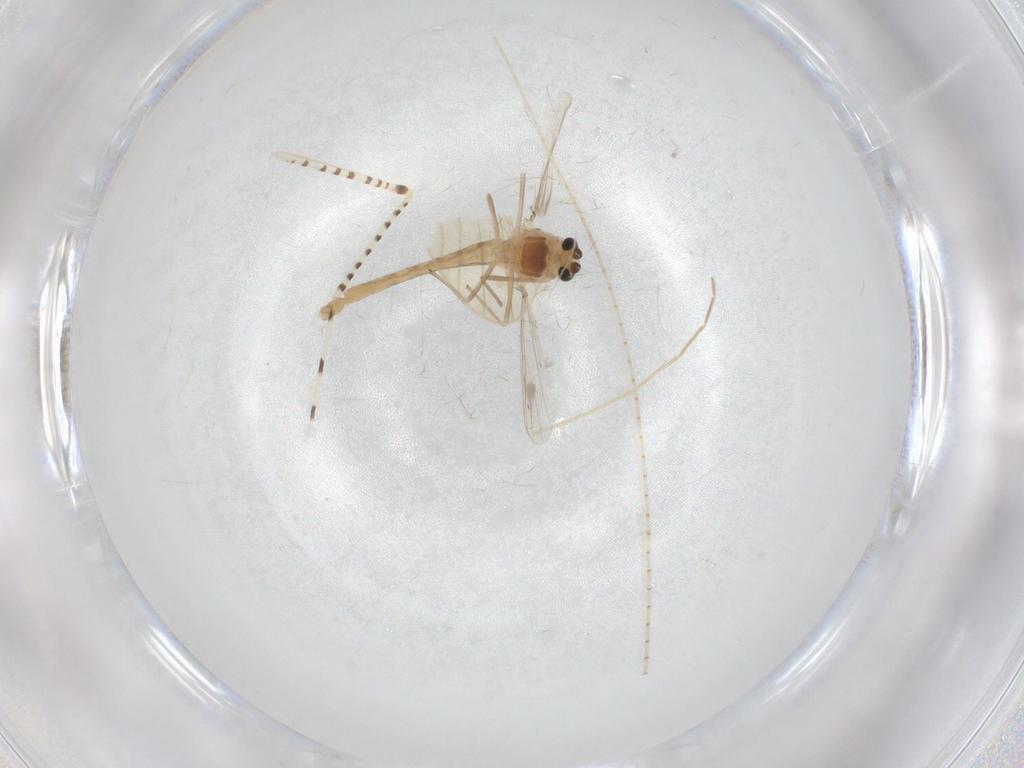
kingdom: Animalia
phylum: Arthropoda
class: Insecta
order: Diptera
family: Chaoboridae
